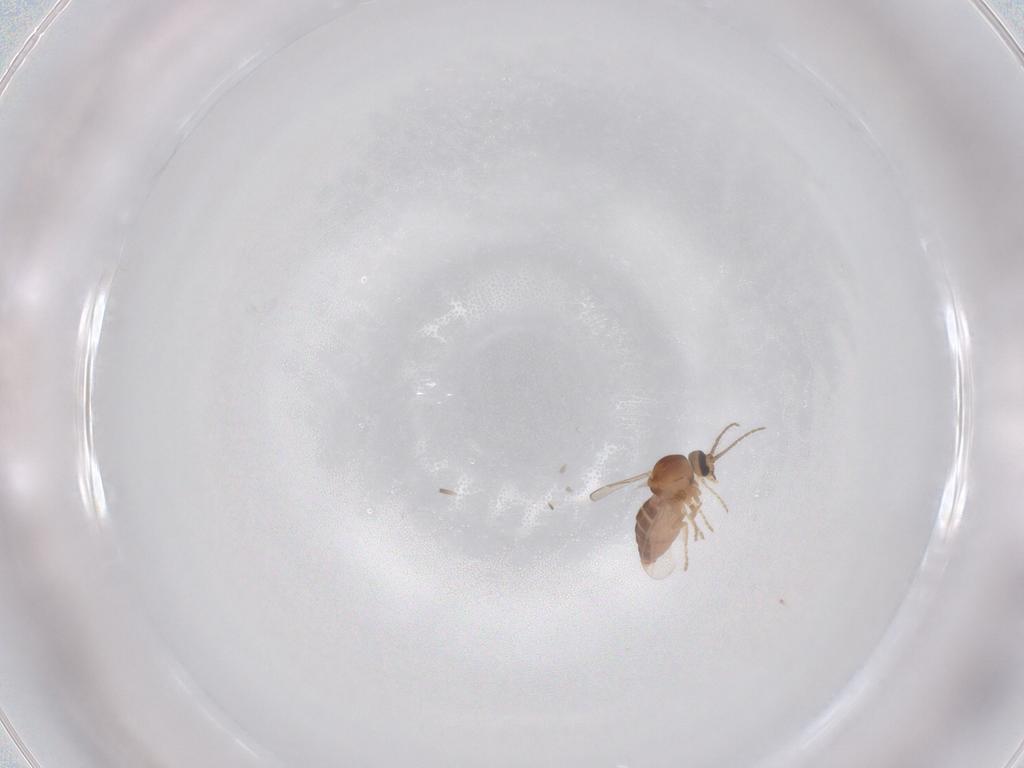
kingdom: Animalia
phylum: Arthropoda
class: Insecta
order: Diptera
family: Ceratopogonidae
